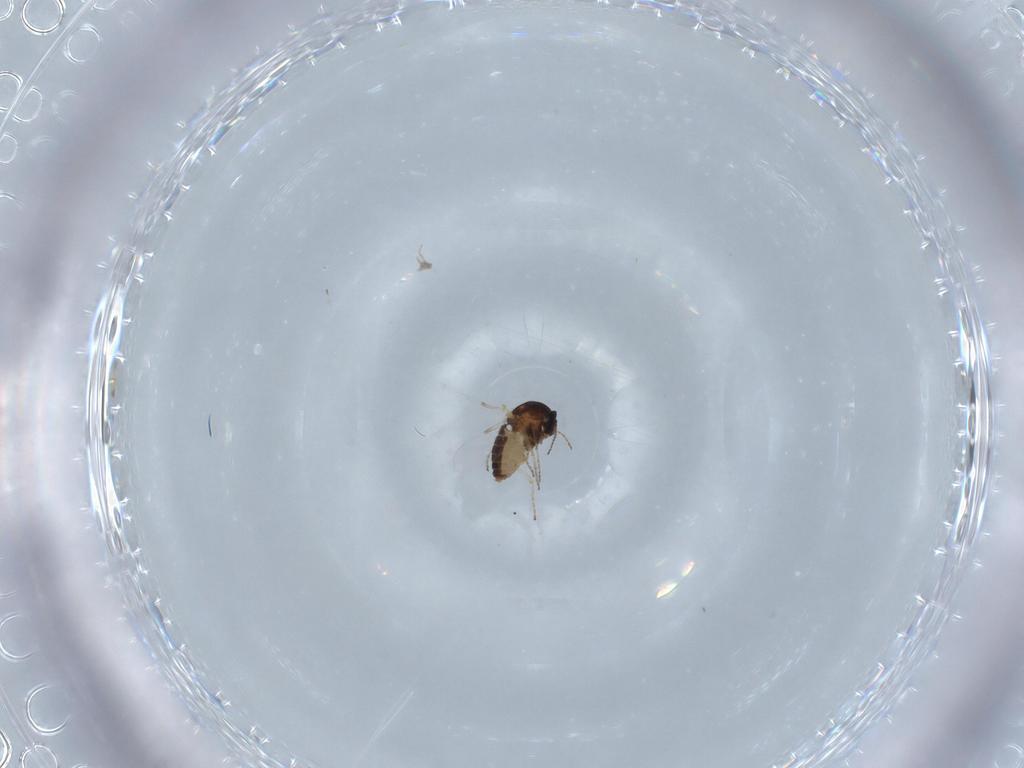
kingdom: Animalia
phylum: Arthropoda
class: Insecta
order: Diptera
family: Ceratopogonidae
